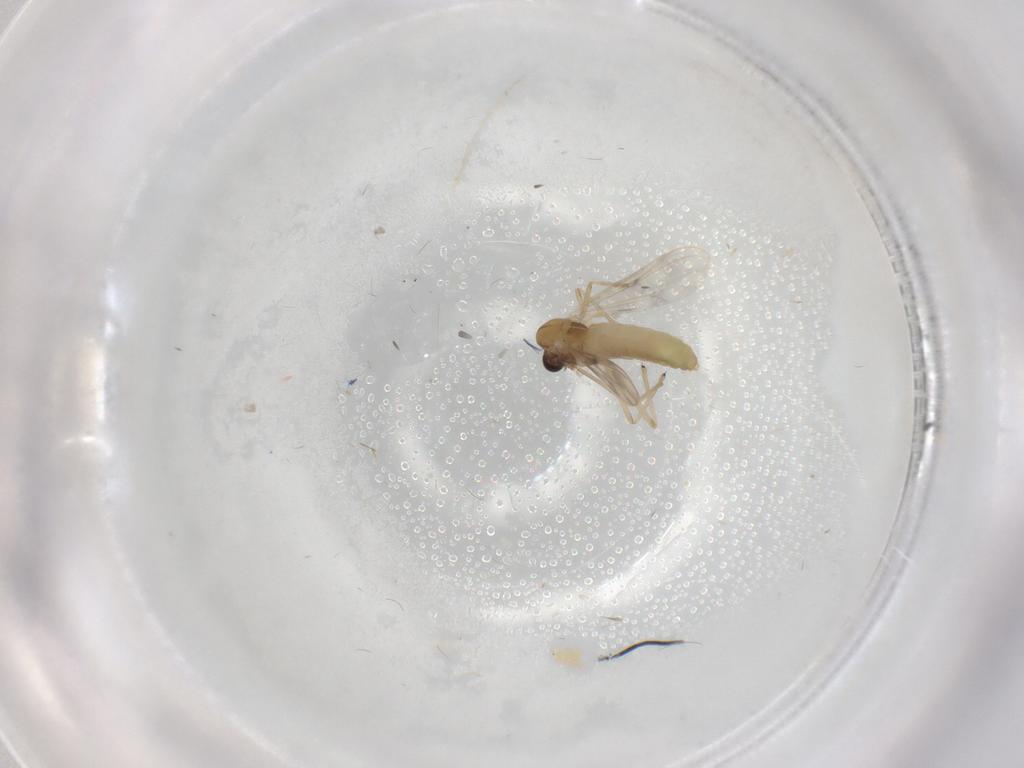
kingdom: Animalia
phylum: Arthropoda
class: Insecta
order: Diptera
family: Chironomidae
